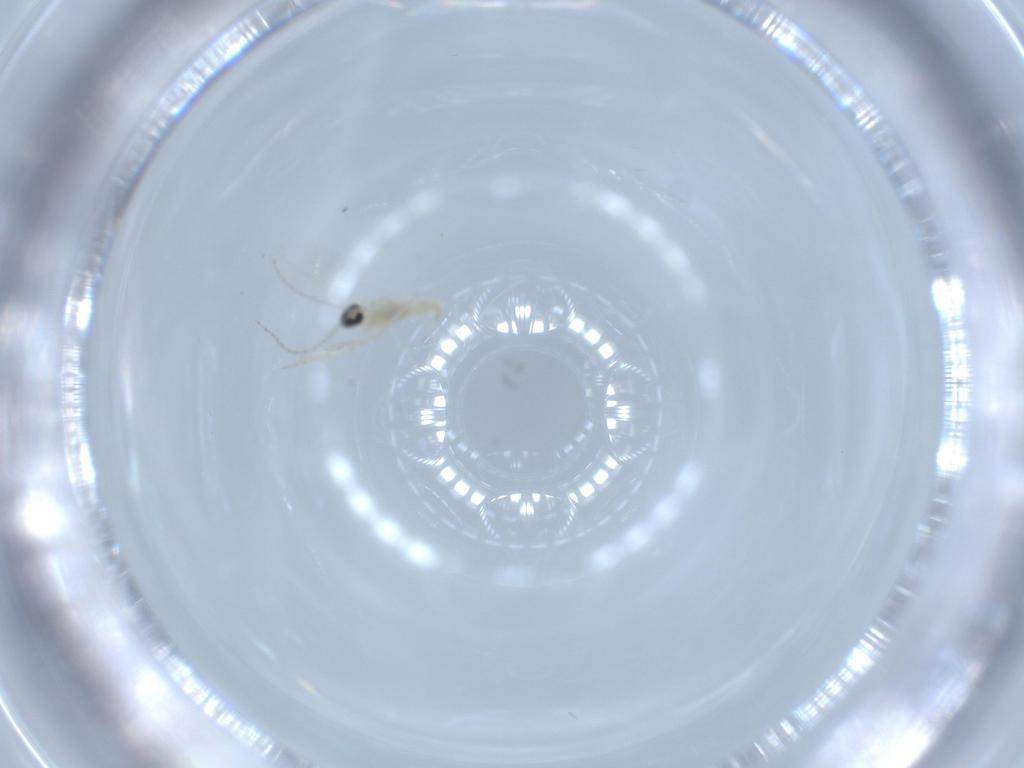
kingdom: Animalia
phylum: Arthropoda
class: Insecta
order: Diptera
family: Cecidomyiidae
